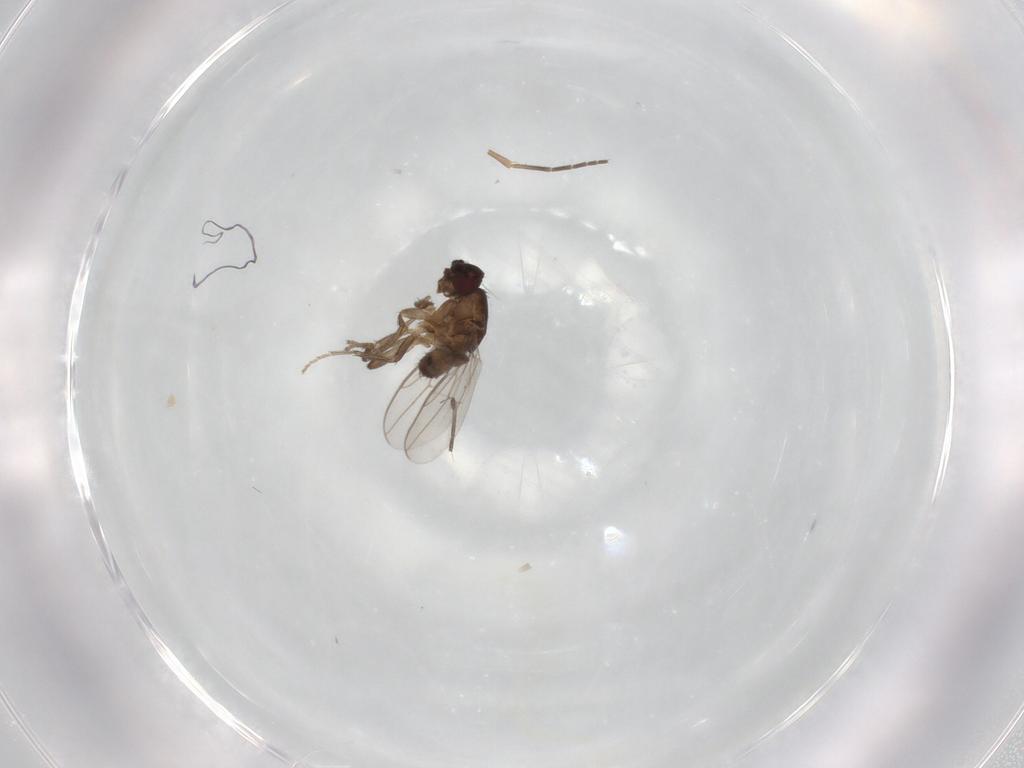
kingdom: Animalia
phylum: Arthropoda
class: Insecta
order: Diptera
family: Sphaeroceridae
